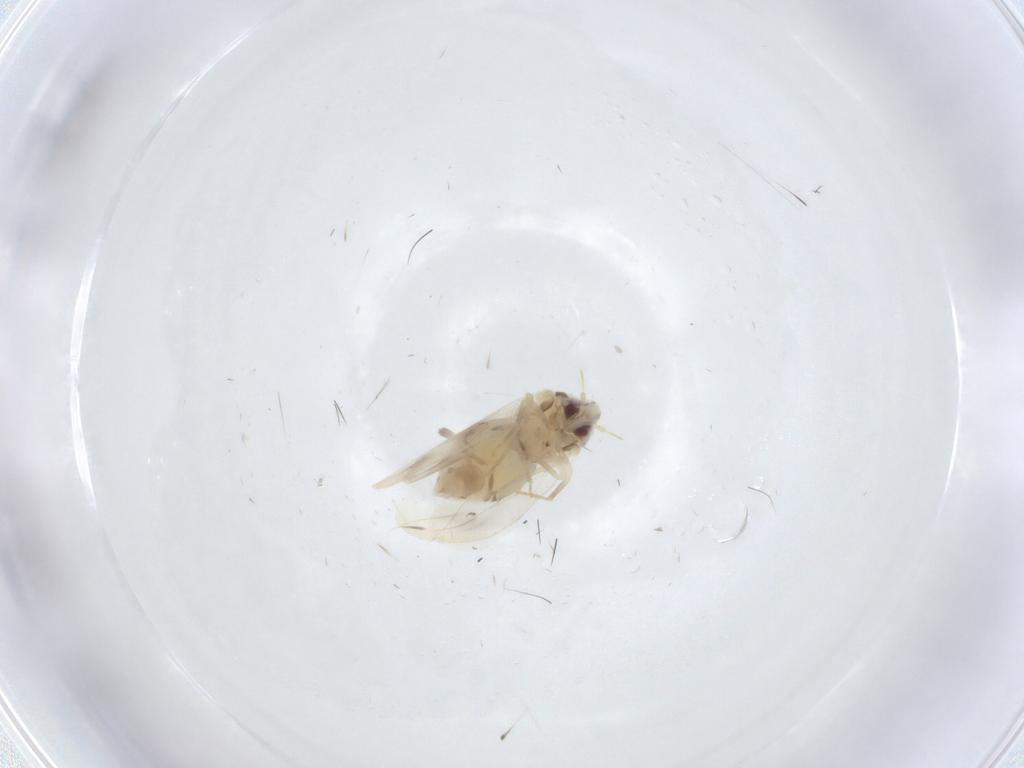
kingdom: Animalia
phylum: Arthropoda
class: Insecta
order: Hemiptera
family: Aleyrodidae
